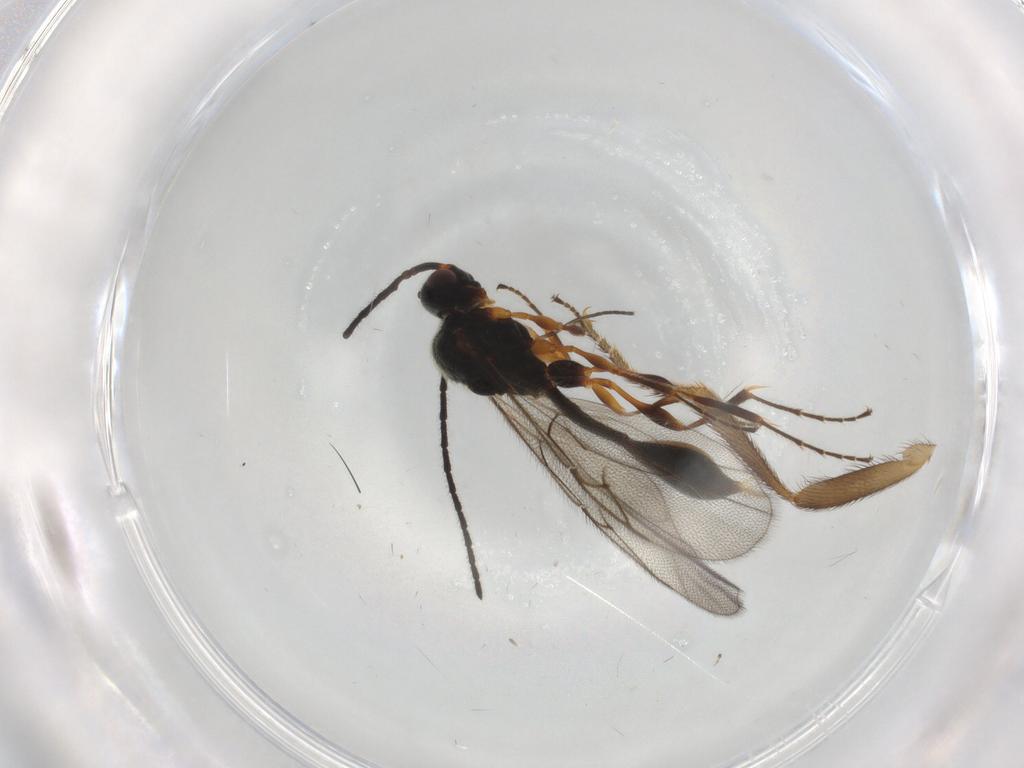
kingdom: Animalia
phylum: Arthropoda
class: Insecta
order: Hymenoptera
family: Diapriidae
